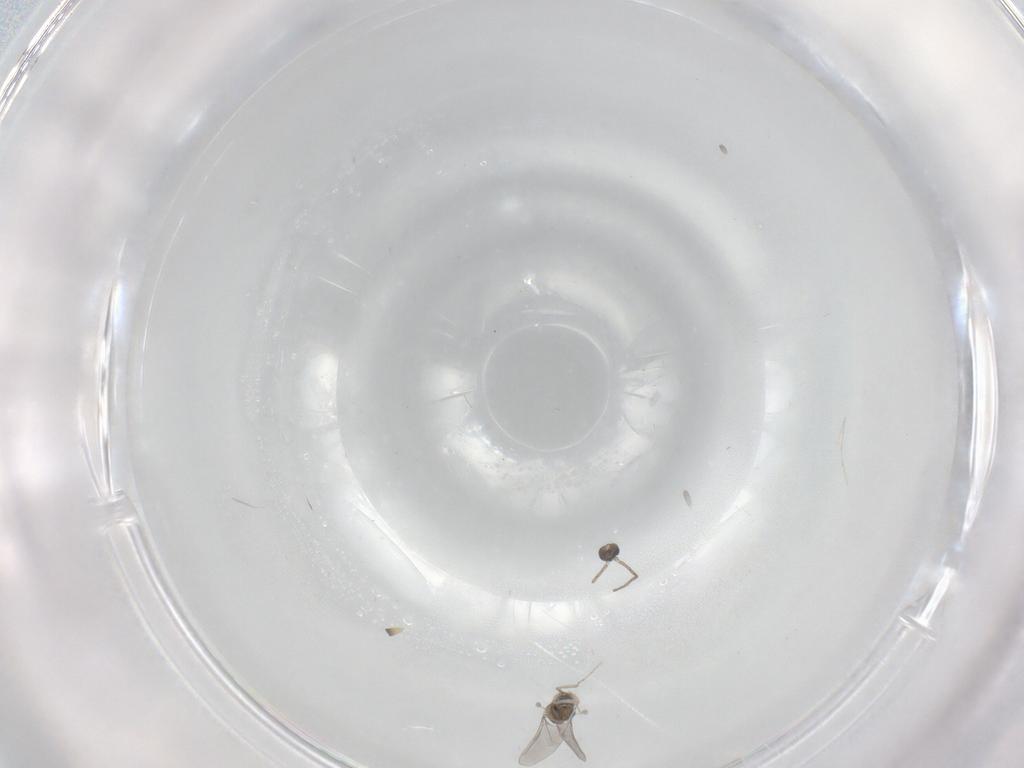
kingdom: Animalia
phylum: Arthropoda
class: Insecta
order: Diptera
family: Cecidomyiidae
